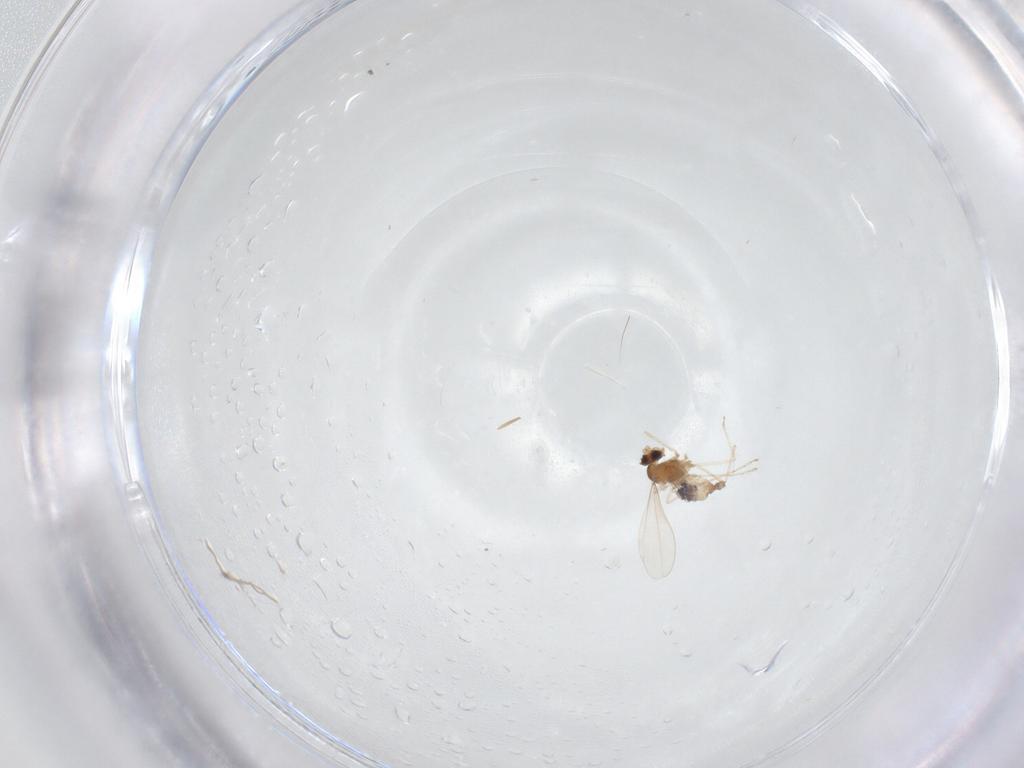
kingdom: Animalia
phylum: Arthropoda
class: Insecta
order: Diptera
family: Cecidomyiidae
